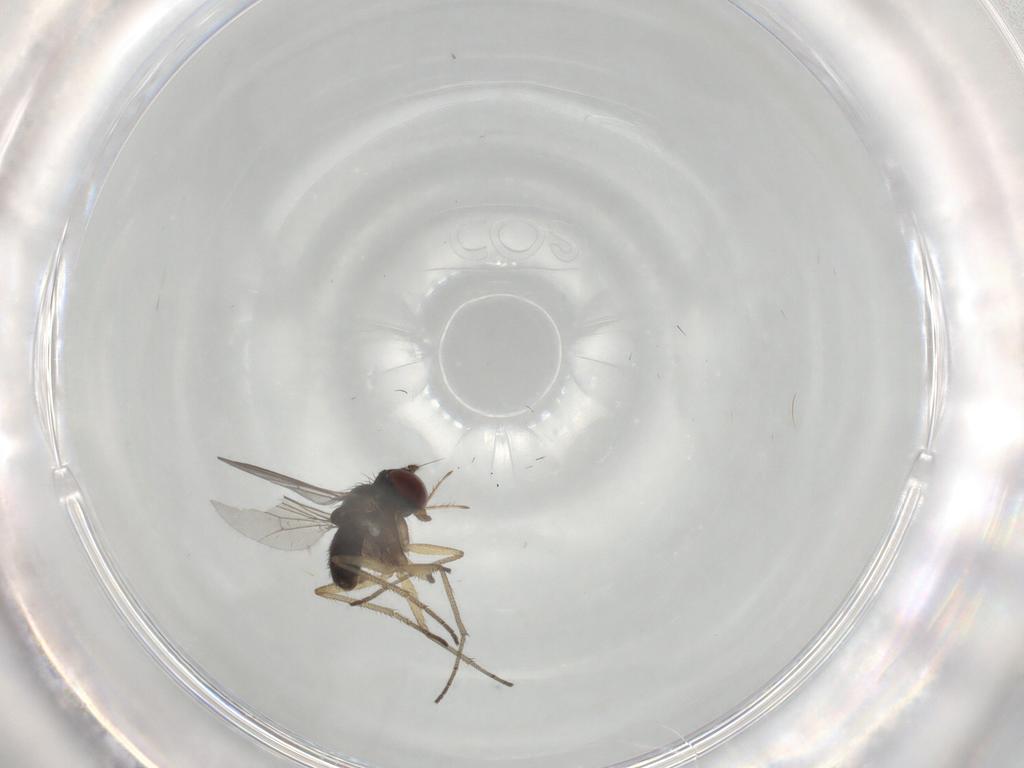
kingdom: Animalia
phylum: Arthropoda
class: Insecta
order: Diptera
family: Dolichopodidae
